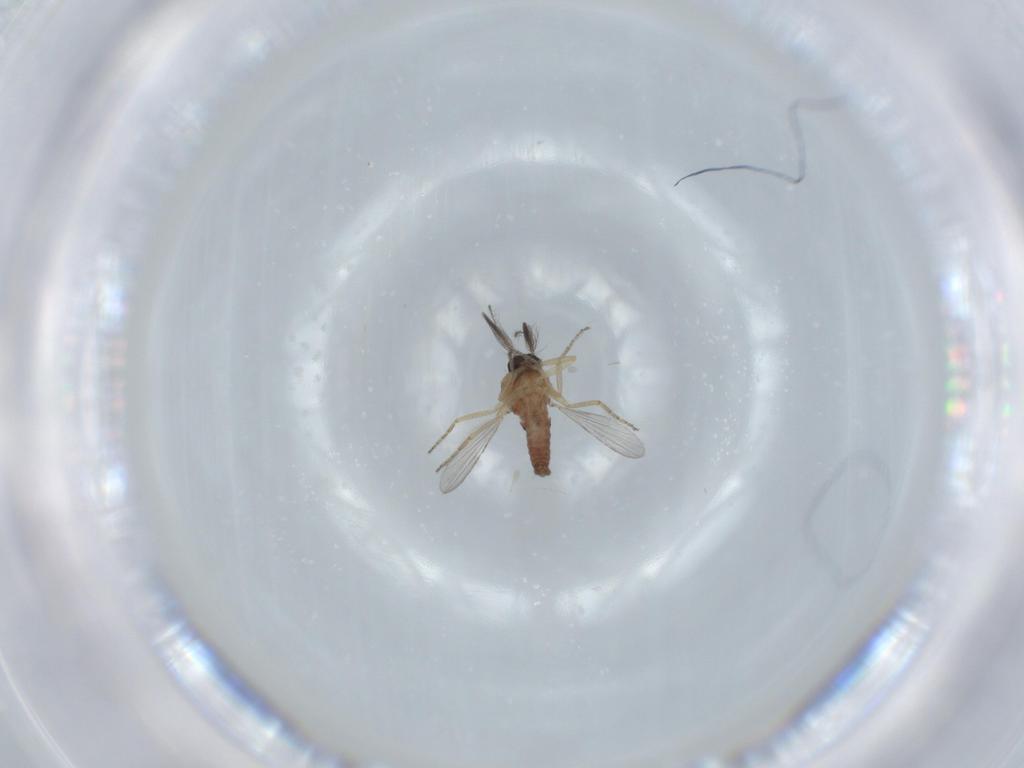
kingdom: Animalia
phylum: Arthropoda
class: Insecta
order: Diptera
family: Ceratopogonidae
